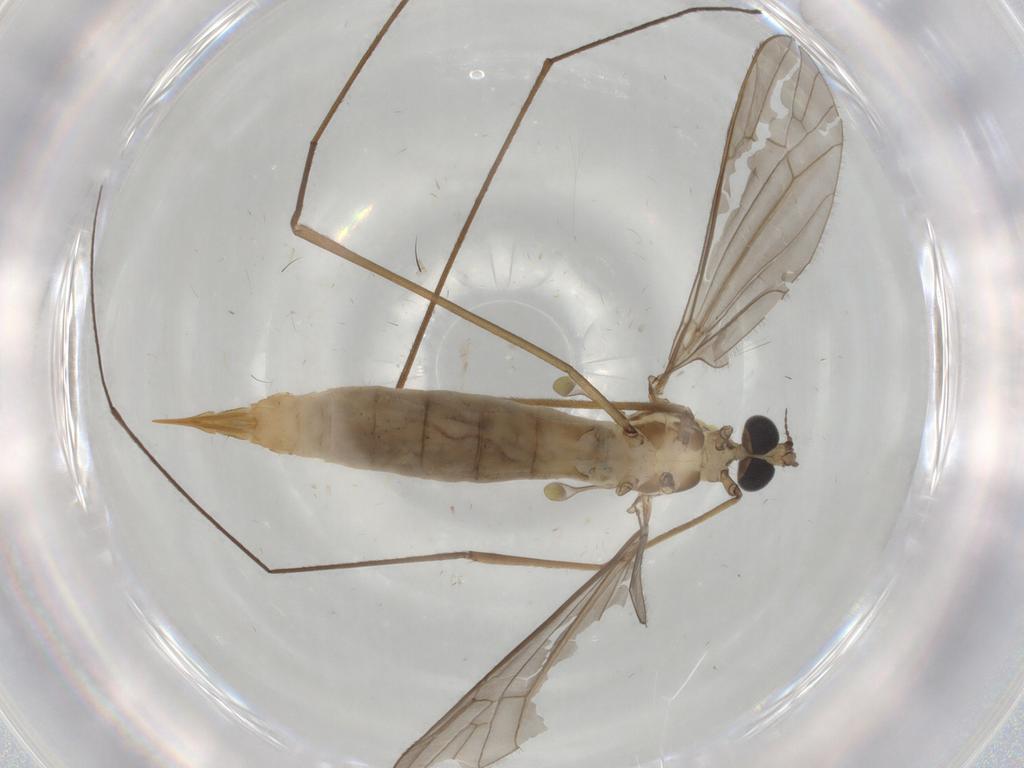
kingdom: Animalia
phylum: Arthropoda
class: Insecta
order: Diptera
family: Limoniidae
